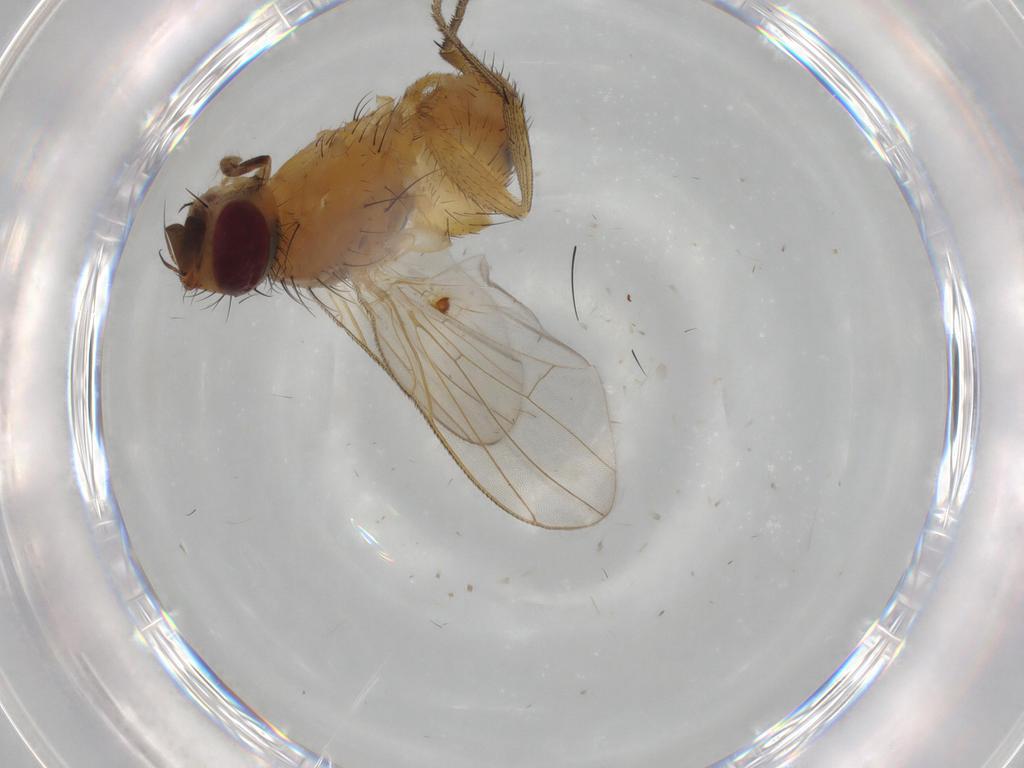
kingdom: Animalia
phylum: Arthropoda
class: Insecta
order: Diptera
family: Muscidae
